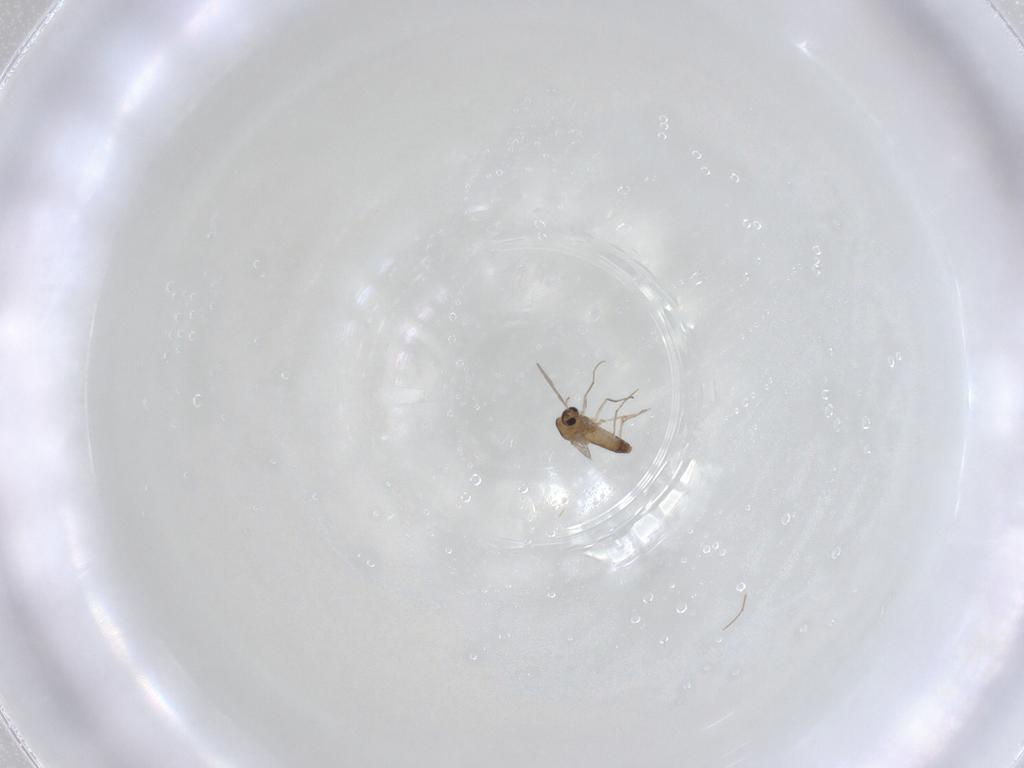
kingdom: Animalia
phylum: Arthropoda
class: Insecta
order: Diptera
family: Chironomidae
